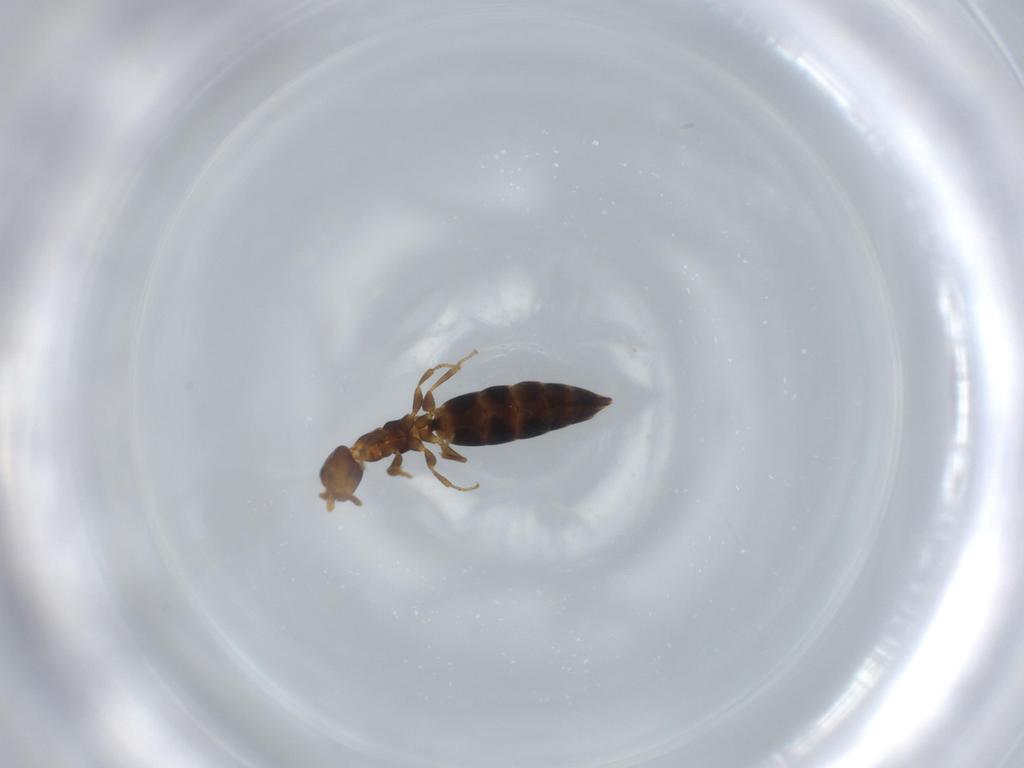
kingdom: Animalia
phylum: Arthropoda
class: Insecta
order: Hymenoptera
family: Bethylidae
